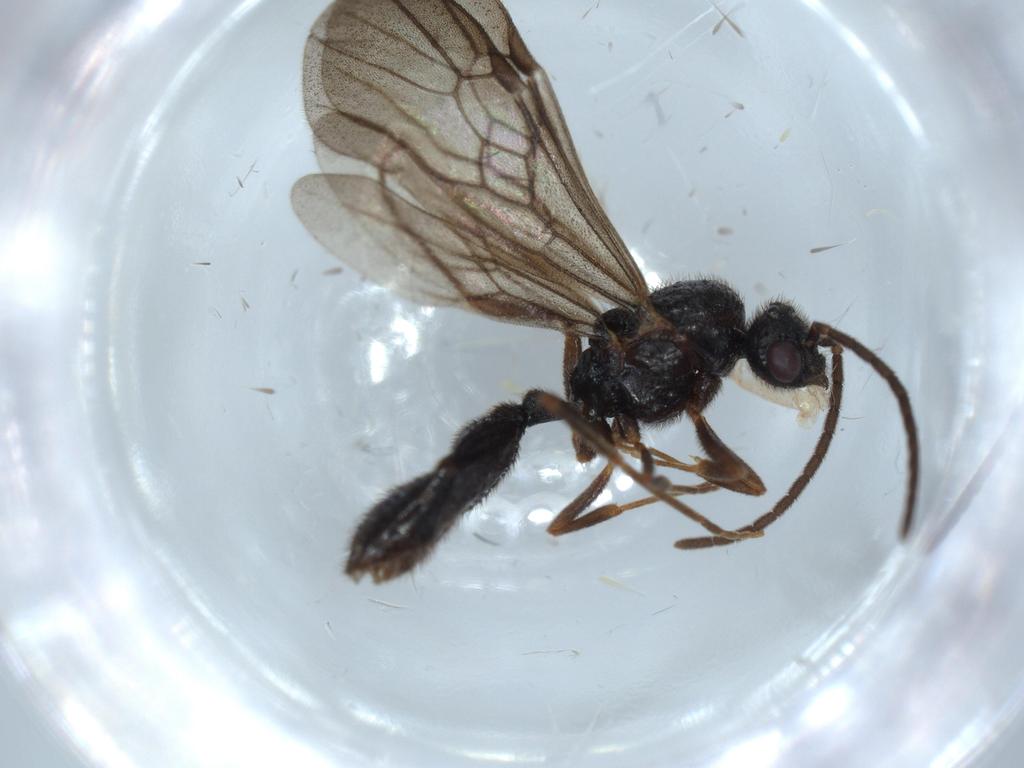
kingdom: Animalia
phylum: Arthropoda
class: Insecta
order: Hymenoptera
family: Formicidae
